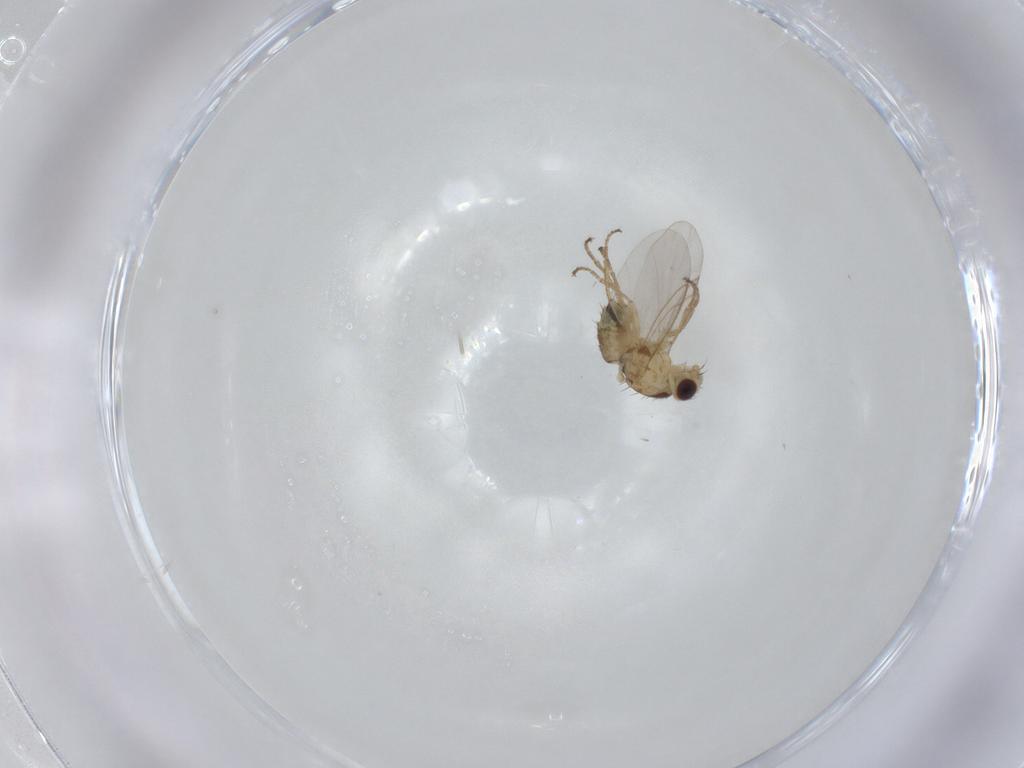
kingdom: Animalia
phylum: Arthropoda
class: Insecta
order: Diptera
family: Agromyzidae
